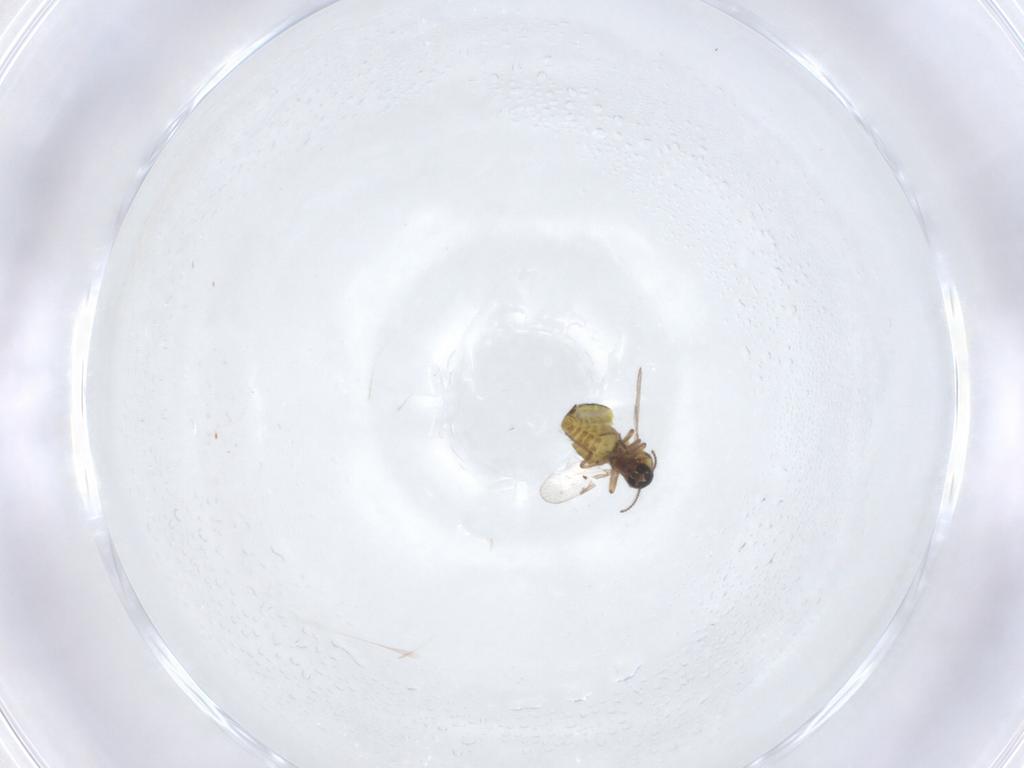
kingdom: Animalia
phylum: Arthropoda
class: Insecta
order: Diptera
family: Ceratopogonidae
